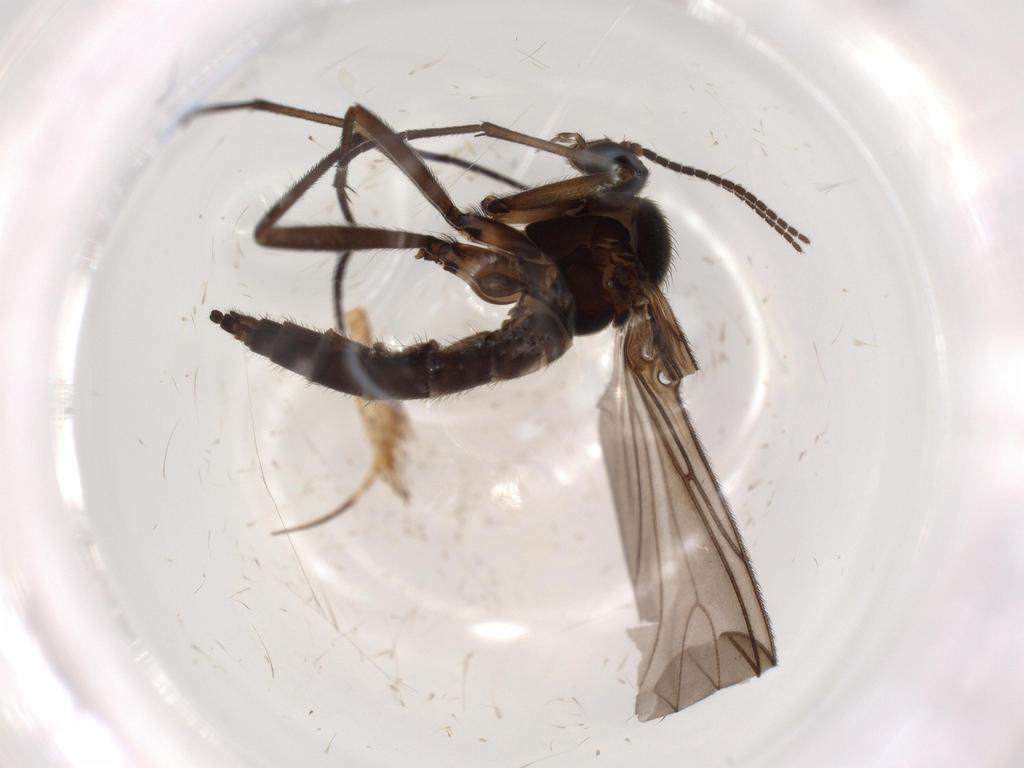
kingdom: Animalia
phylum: Arthropoda
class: Insecta
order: Diptera
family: Sciaridae
